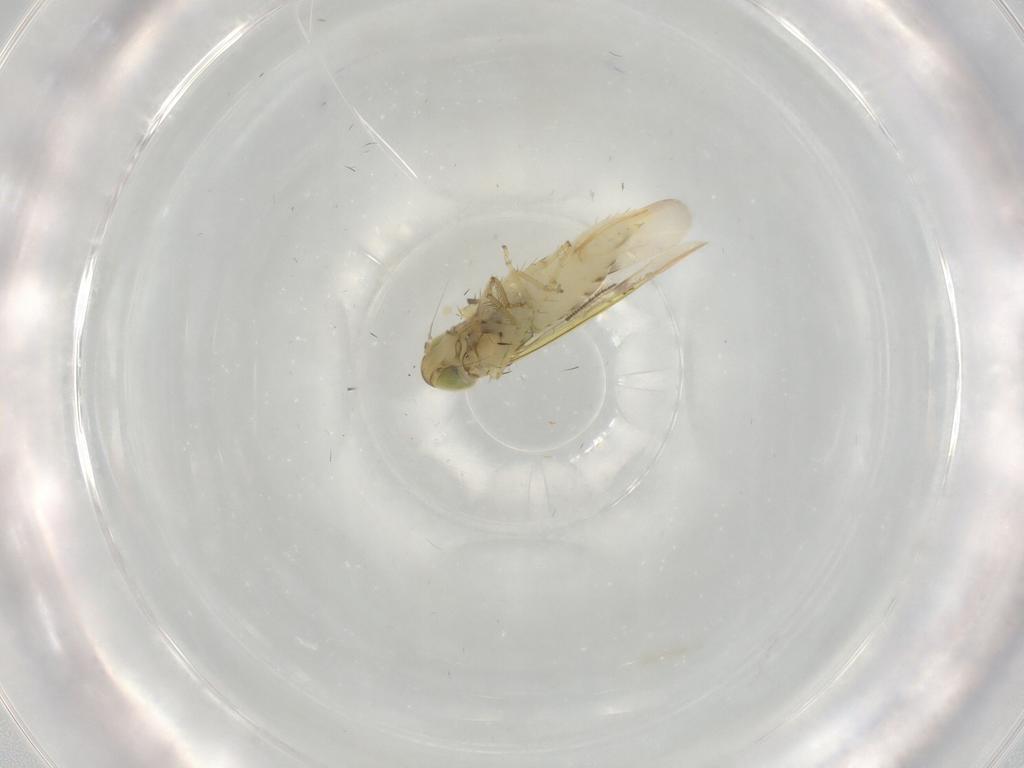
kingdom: Animalia
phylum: Arthropoda
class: Insecta
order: Hemiptera
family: Cicadellidae
